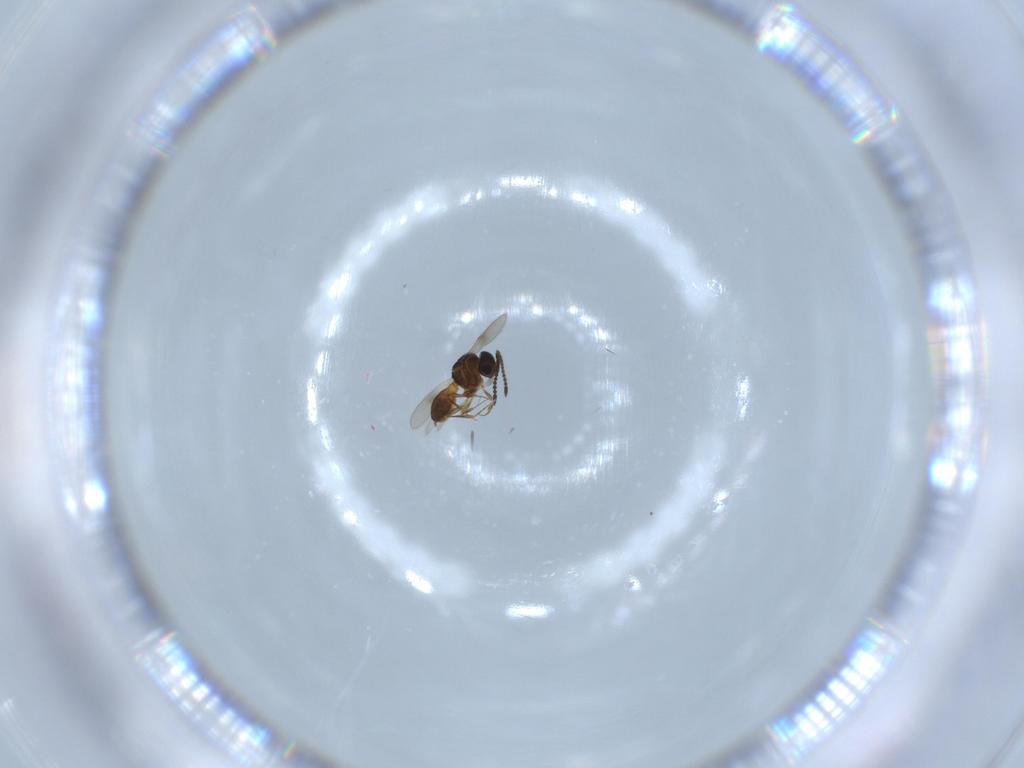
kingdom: Animalia
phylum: Arthropoda
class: Insecta
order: Hymenoptera
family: Scelionidae
